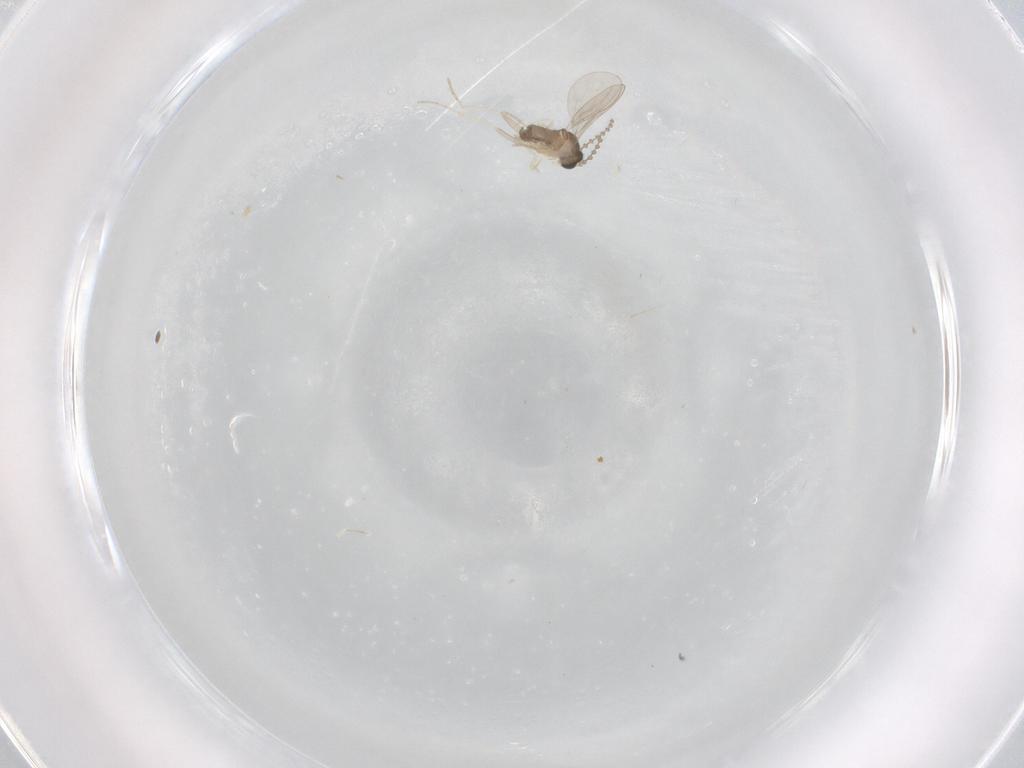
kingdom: Animalia
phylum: Arthropoda
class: Insecta
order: Diptera
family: Cecidomyiidae
